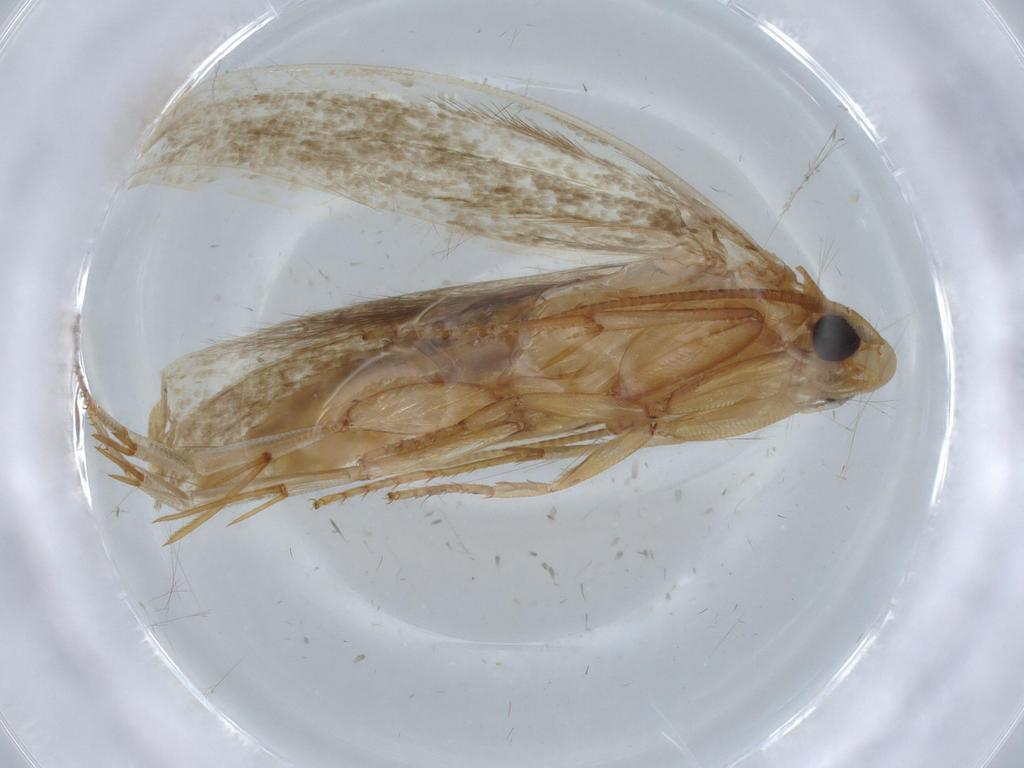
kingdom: Animalia
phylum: Arthropoda
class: Insecta
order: Lepidoptera
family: Tineidae
